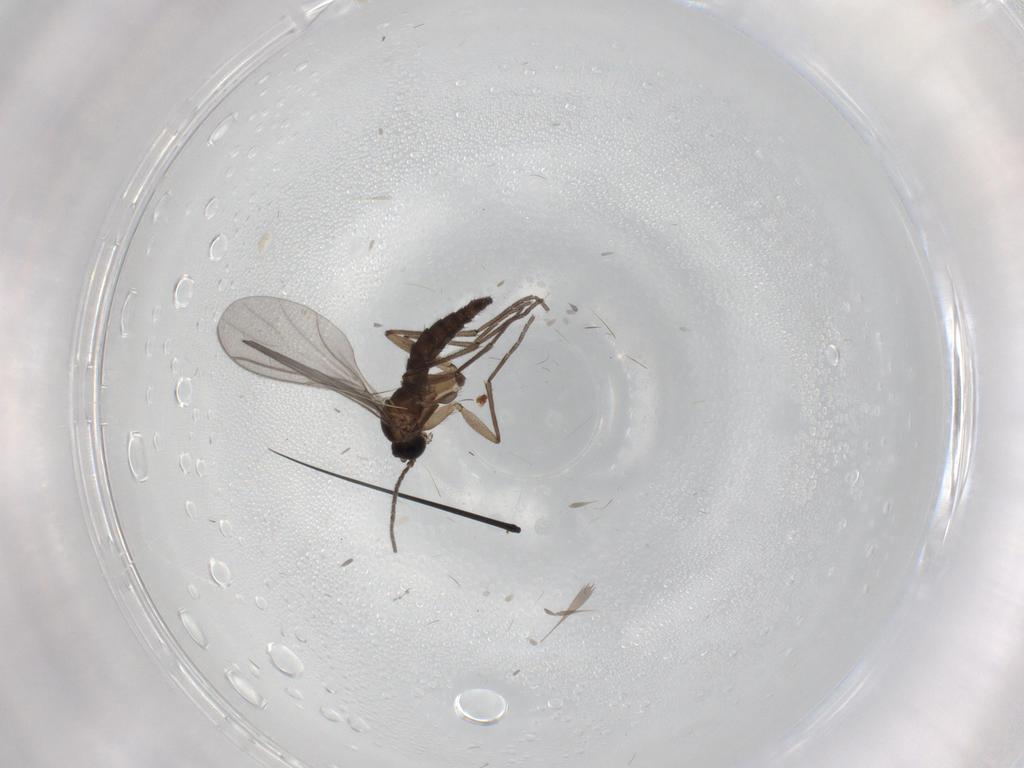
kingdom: Animalia
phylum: Arthropoda
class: Insecta
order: Diptera
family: Sciaridae
